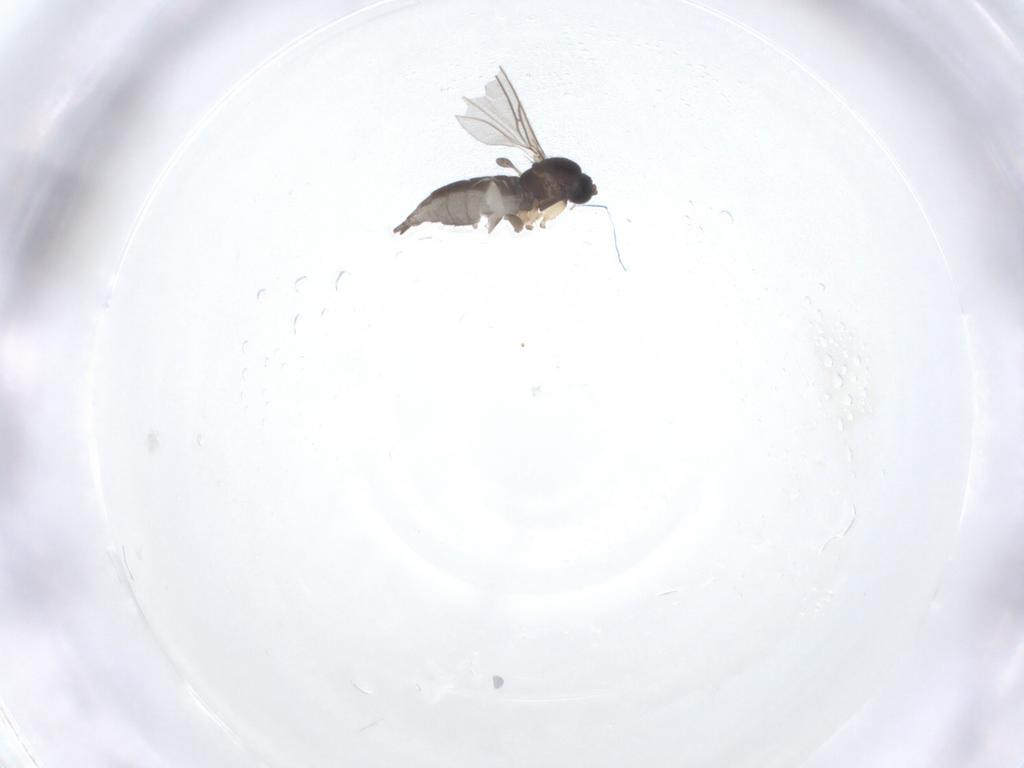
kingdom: Animalia
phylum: Arthropoda
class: Insecta
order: Diptera
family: Sciaridae
